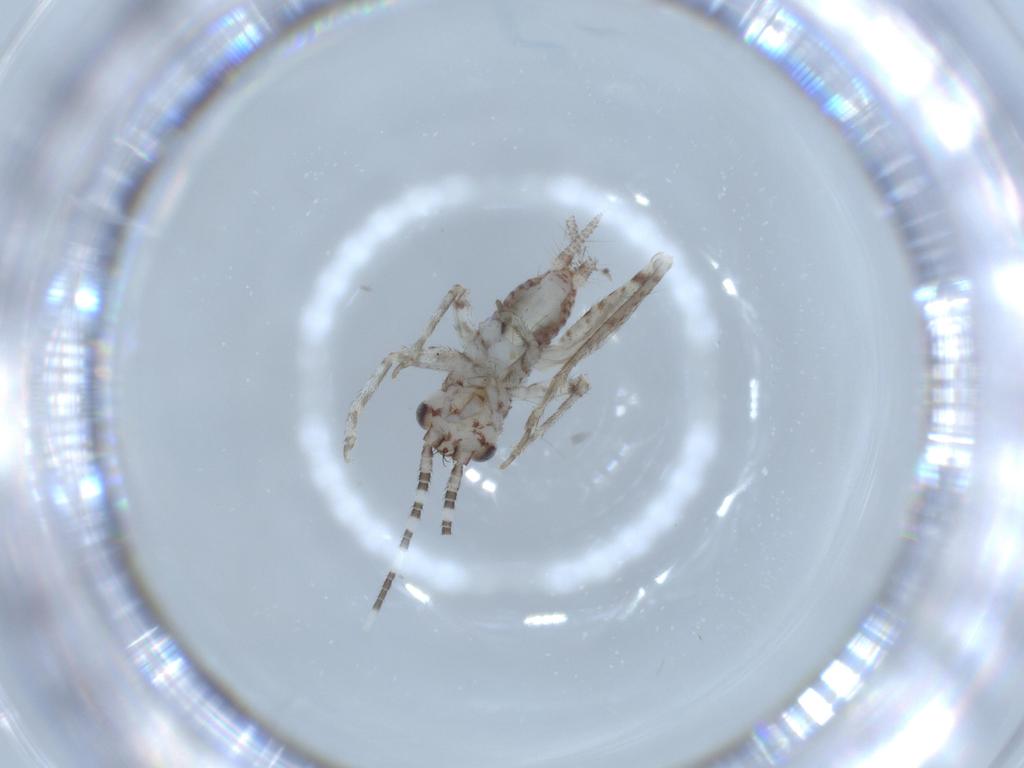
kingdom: Animalia
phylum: Arthropoda
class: Insecta
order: Orthoptera
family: Trigonidiidae
